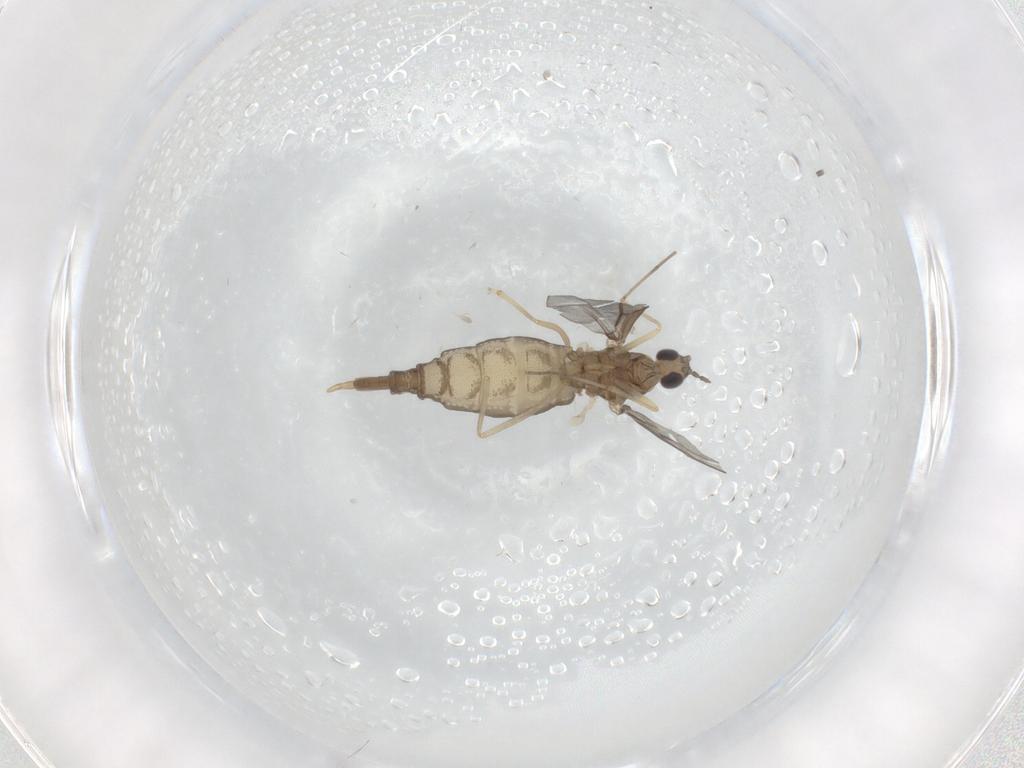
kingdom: Animalia
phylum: Arthropoda
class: Insecta
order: Diptera
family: Cecidomyiidae
